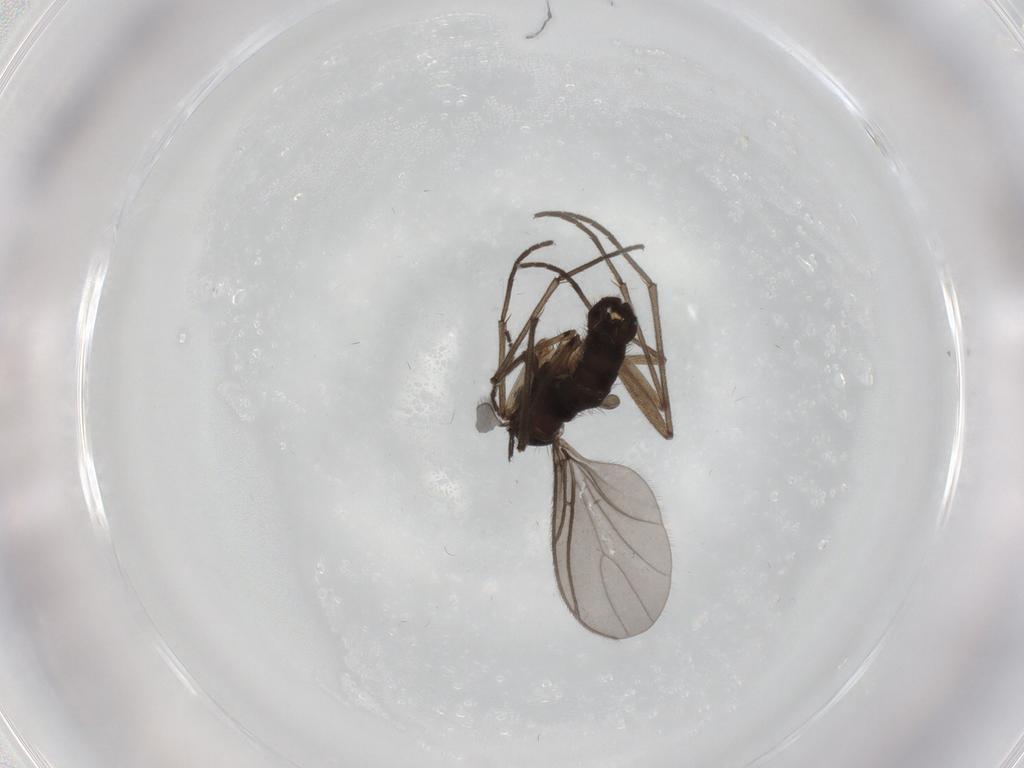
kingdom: Animalia
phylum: Arthropoda
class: Insecta
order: Diptera
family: Sciaridae
